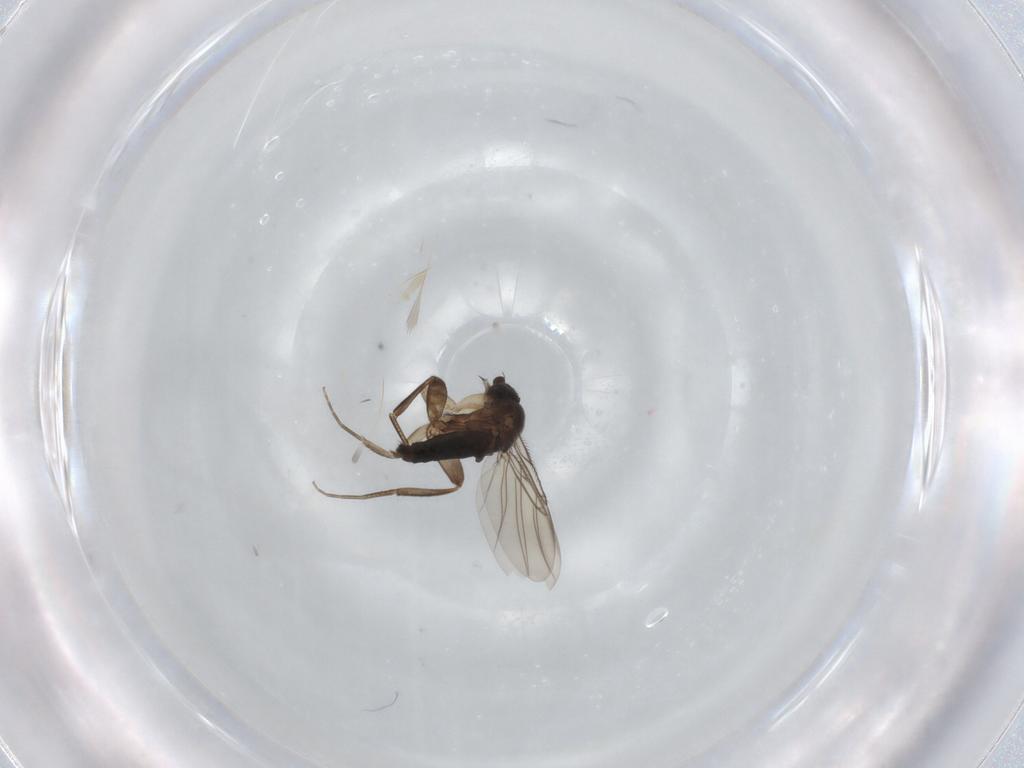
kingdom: Animalia
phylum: Arthropoda
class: Insecta
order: Diptera
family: Phoridae
